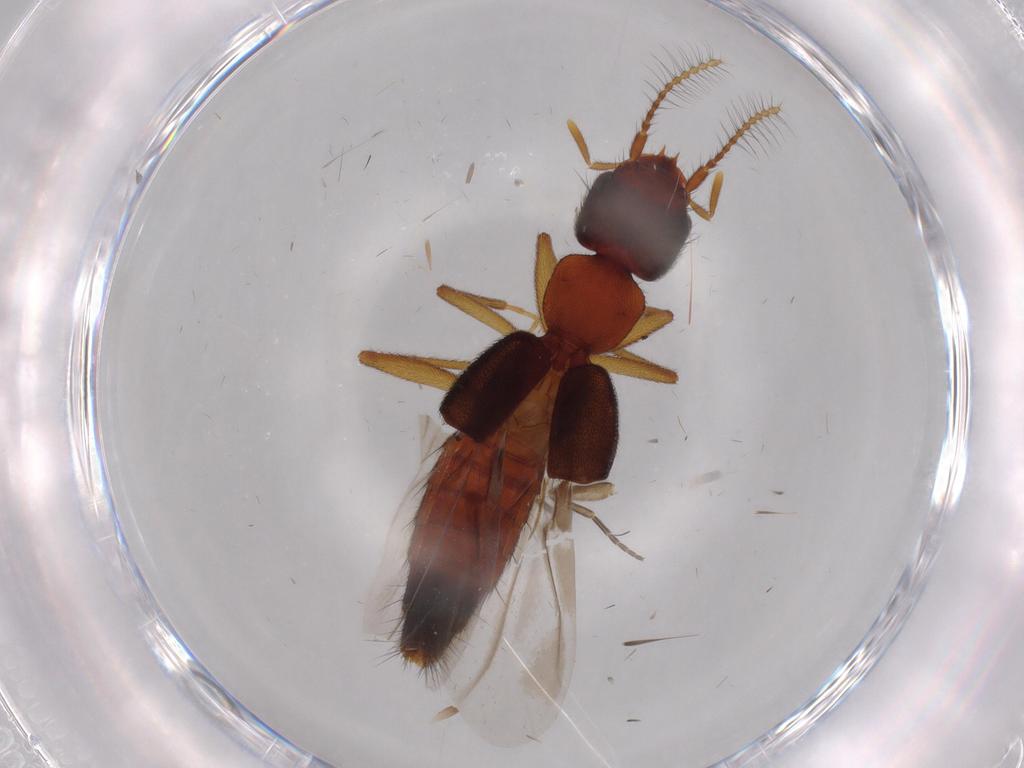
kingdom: Animalia
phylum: Arthropoda
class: Insecta
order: Coleoptera
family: Staphylinidae
